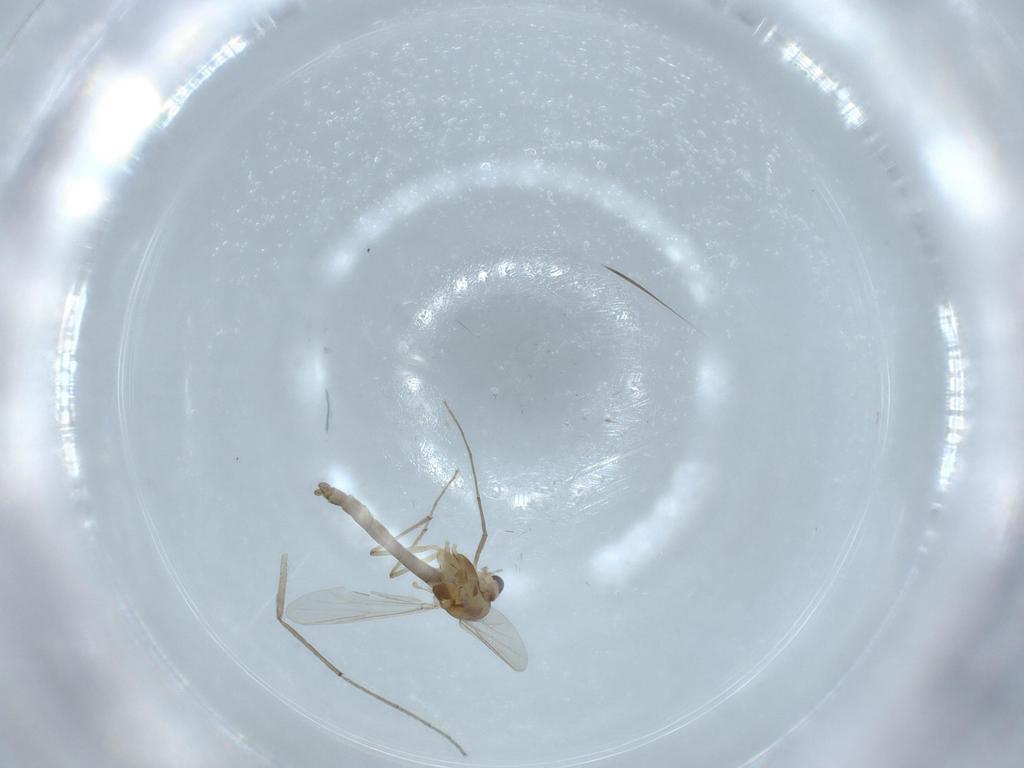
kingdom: Animalia
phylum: Arthropoda
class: Insecta
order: Diptera
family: Chironomidae
